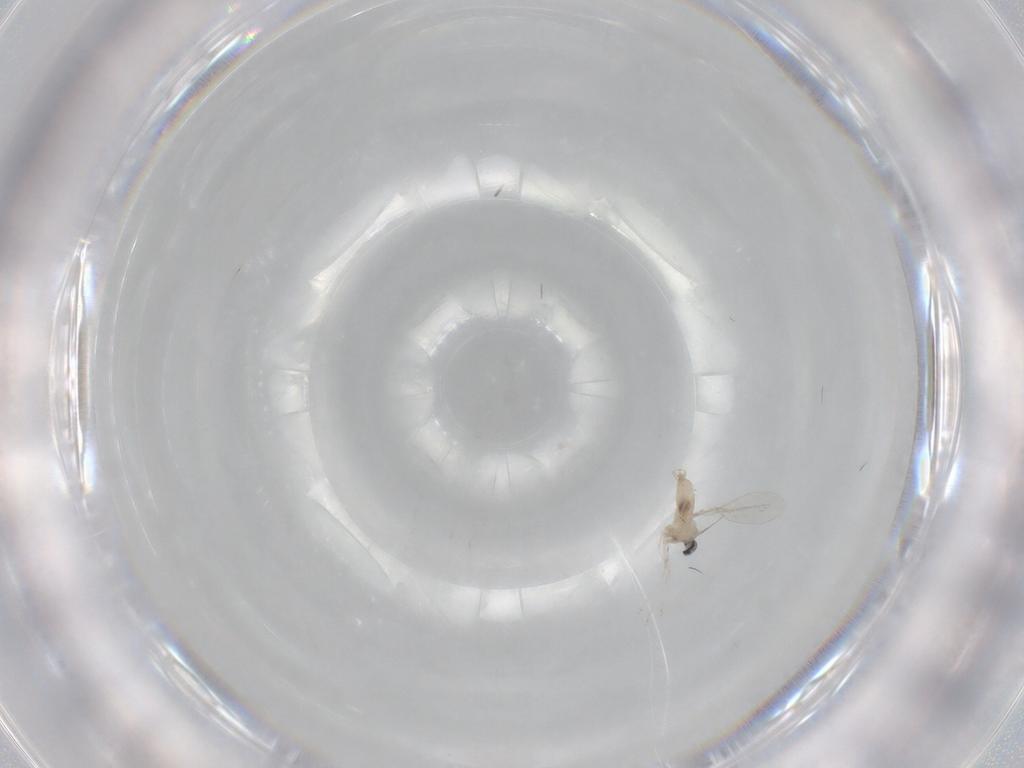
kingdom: Animalia
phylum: Arthropoda
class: Insecta
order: Diptera
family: Cecidomyiidae
